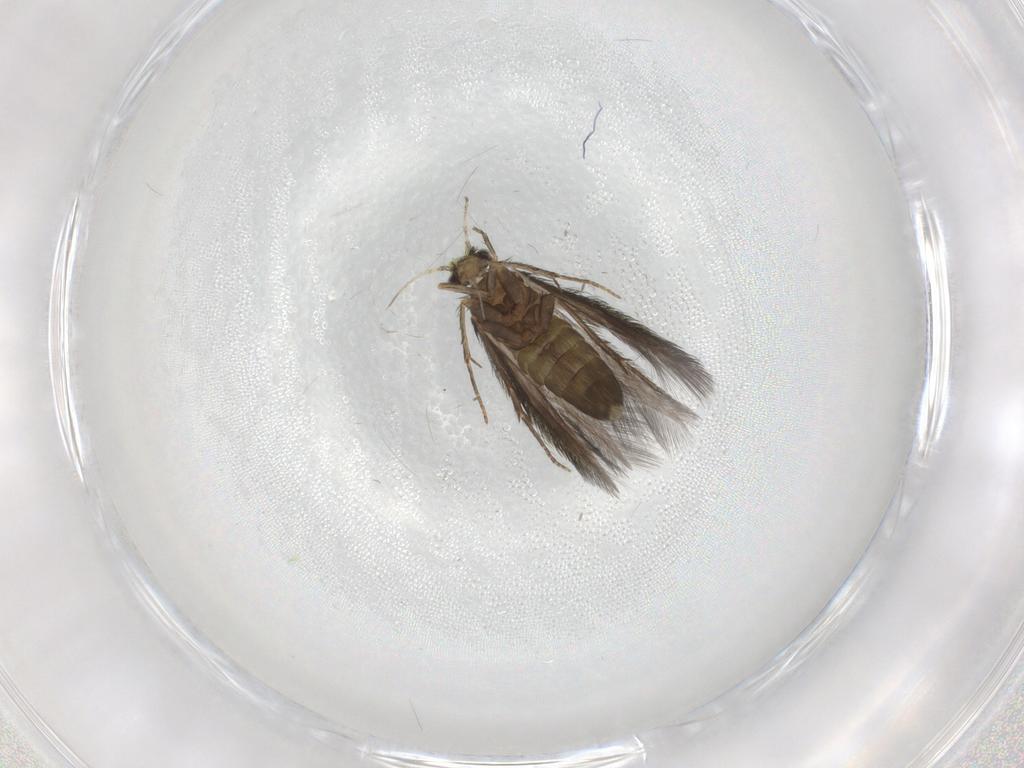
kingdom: Animalia
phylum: Arthropoda
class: Insecta
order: Trichoptera
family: Hydroptilidae
